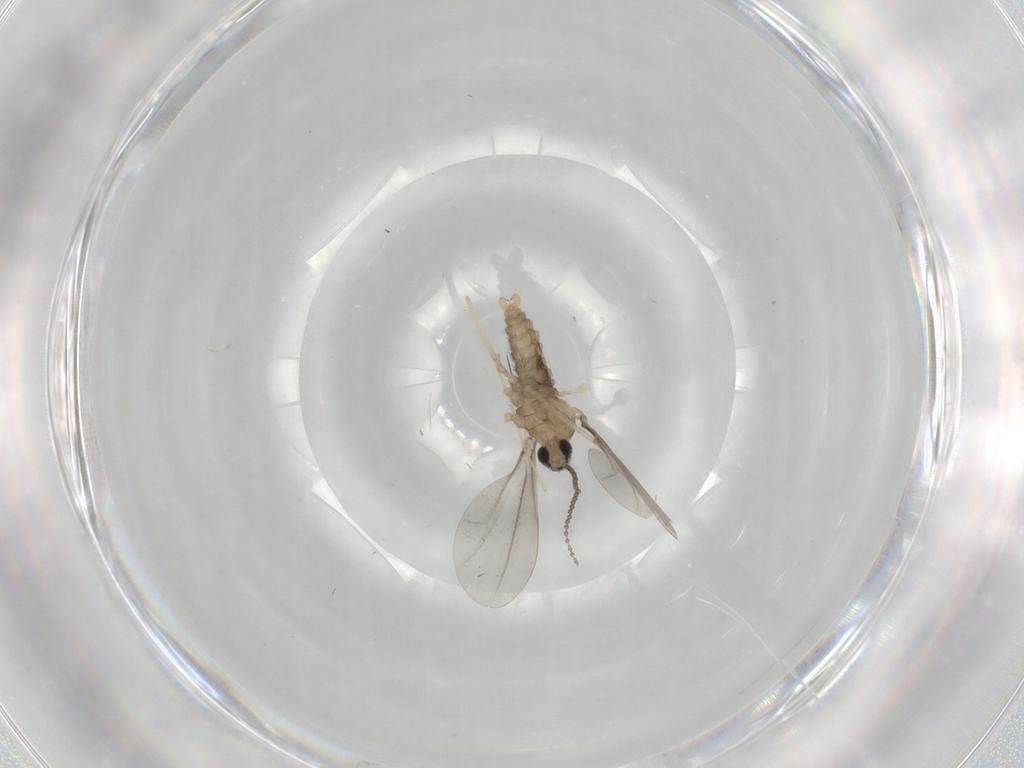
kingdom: Animalia
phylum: Arthropoda
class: Insecta
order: Diptera
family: Cecidomyiidae
